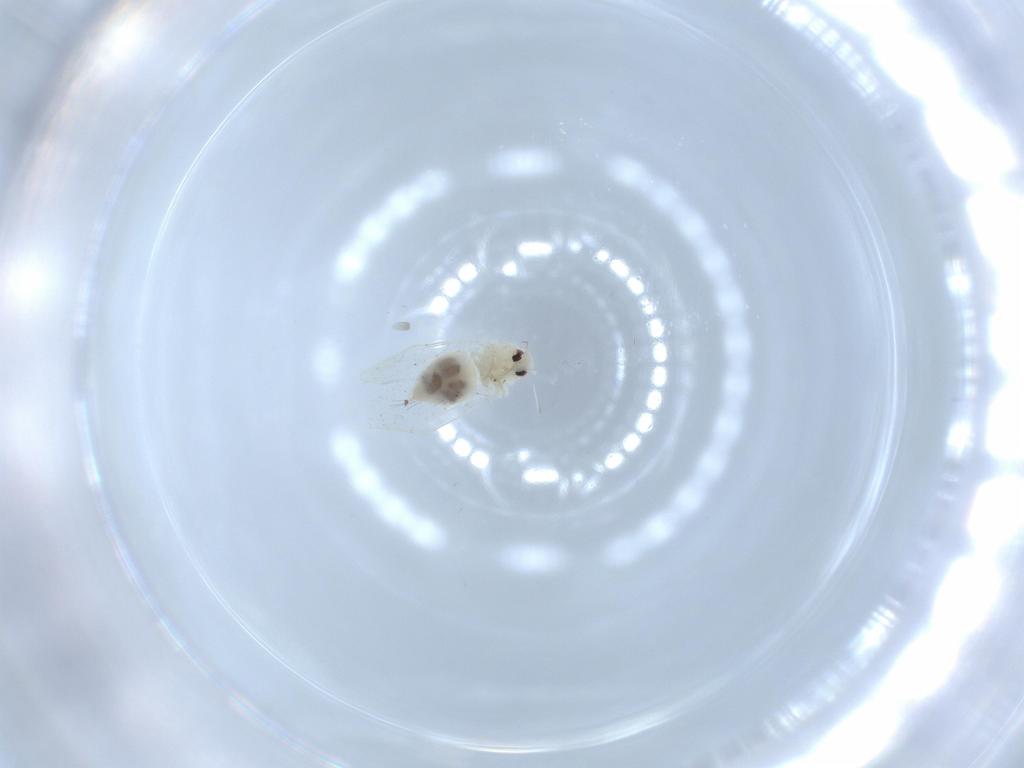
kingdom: Animalia
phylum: Arthropoda
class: Insecta
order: Hemiptera
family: Aleyrodidae
